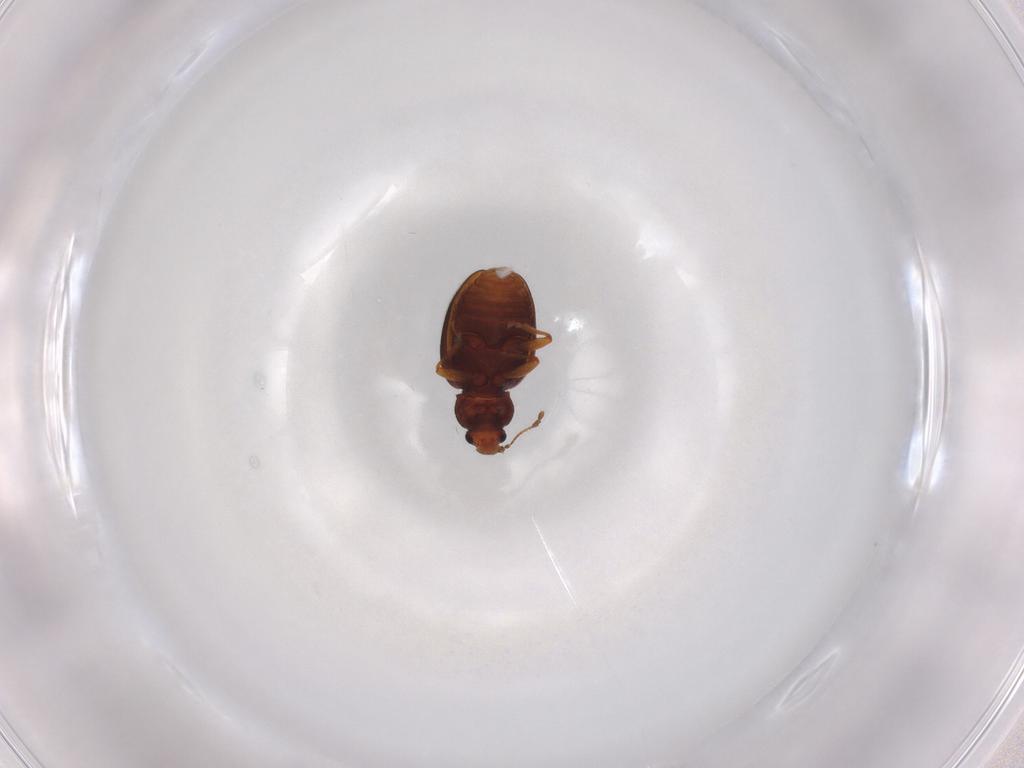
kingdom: Animalia
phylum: Arthropoda
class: Insecta
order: Coleoptera
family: Latridiidae
